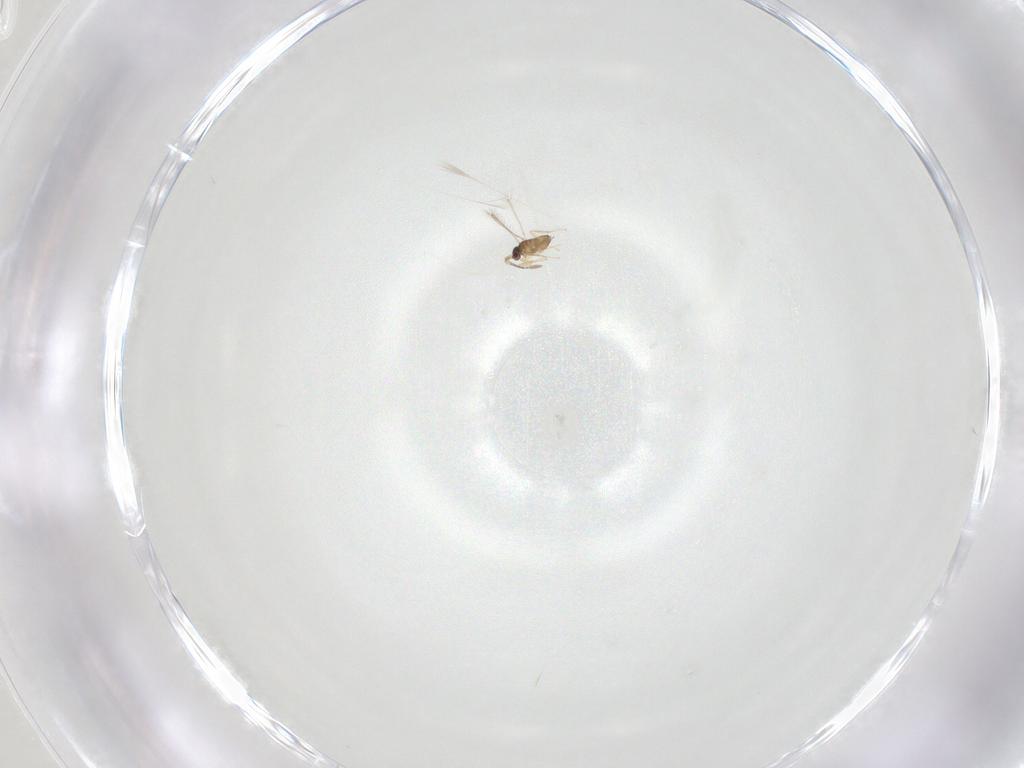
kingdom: Animalia
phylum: Arthropoda
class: Insecta
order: Hymenoptera
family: Mymaridae
